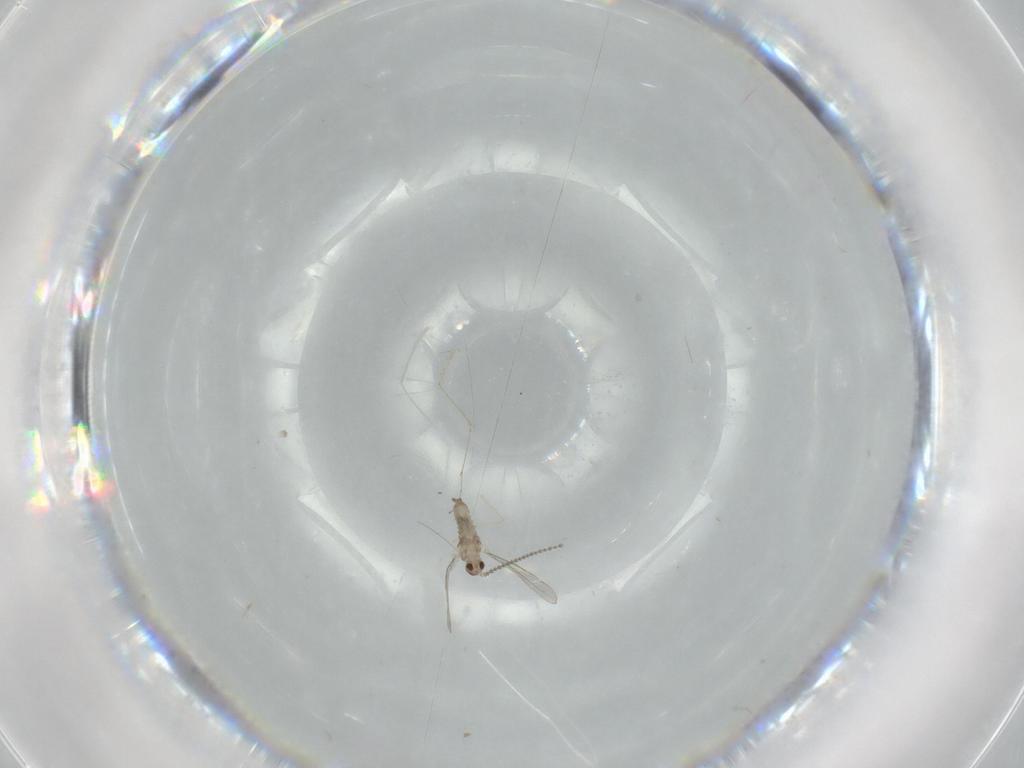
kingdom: Animalia
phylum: Arthropoda
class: Insecta
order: Diptera
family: Cecidomyiidae
